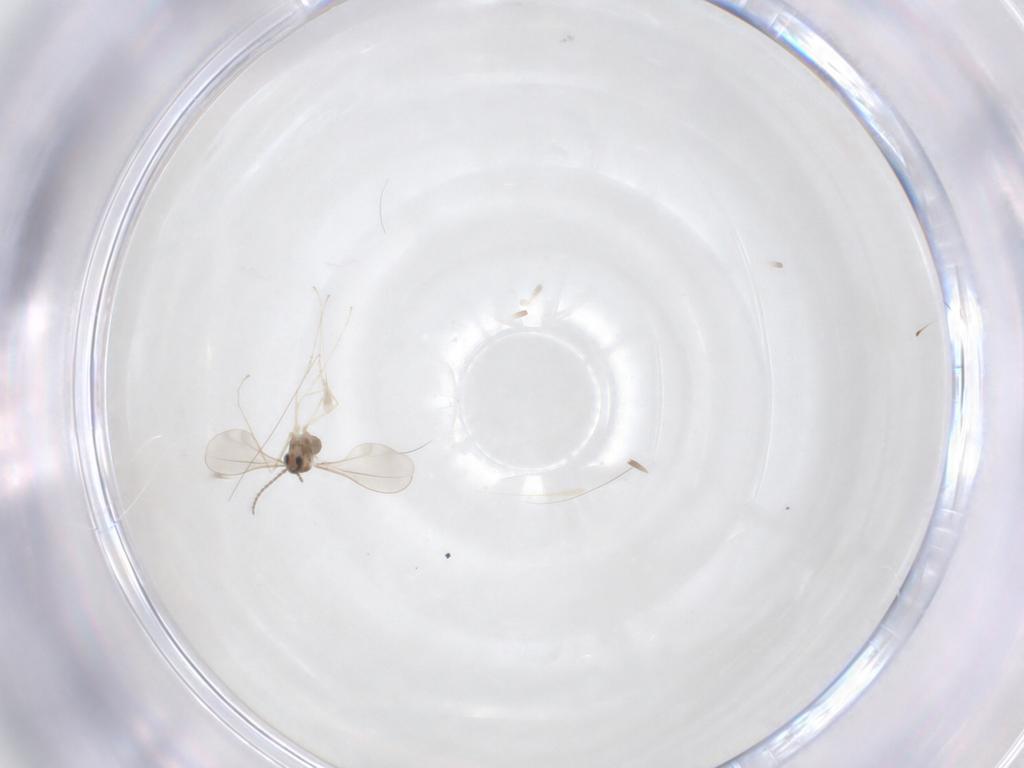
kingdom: Animalia
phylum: Arthropoda
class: Insecta
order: Diptera
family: Cecidomyiidae
